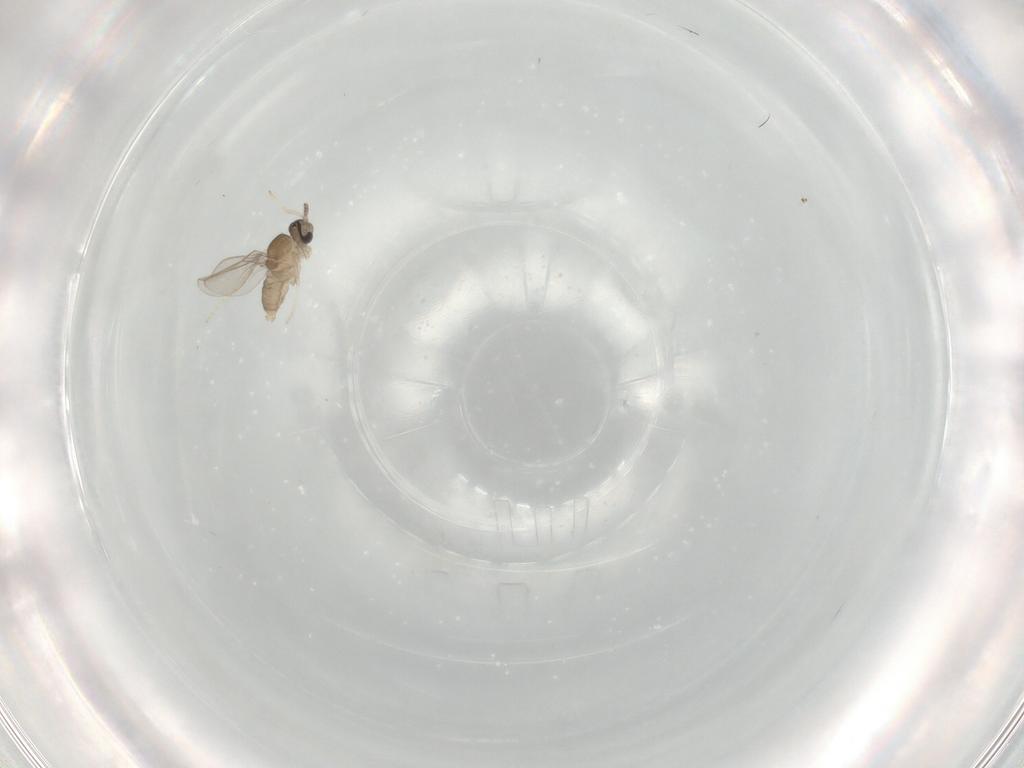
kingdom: Animalia
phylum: Arthropoda
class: Insecta
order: Diptera
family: Cecidomyiidae
